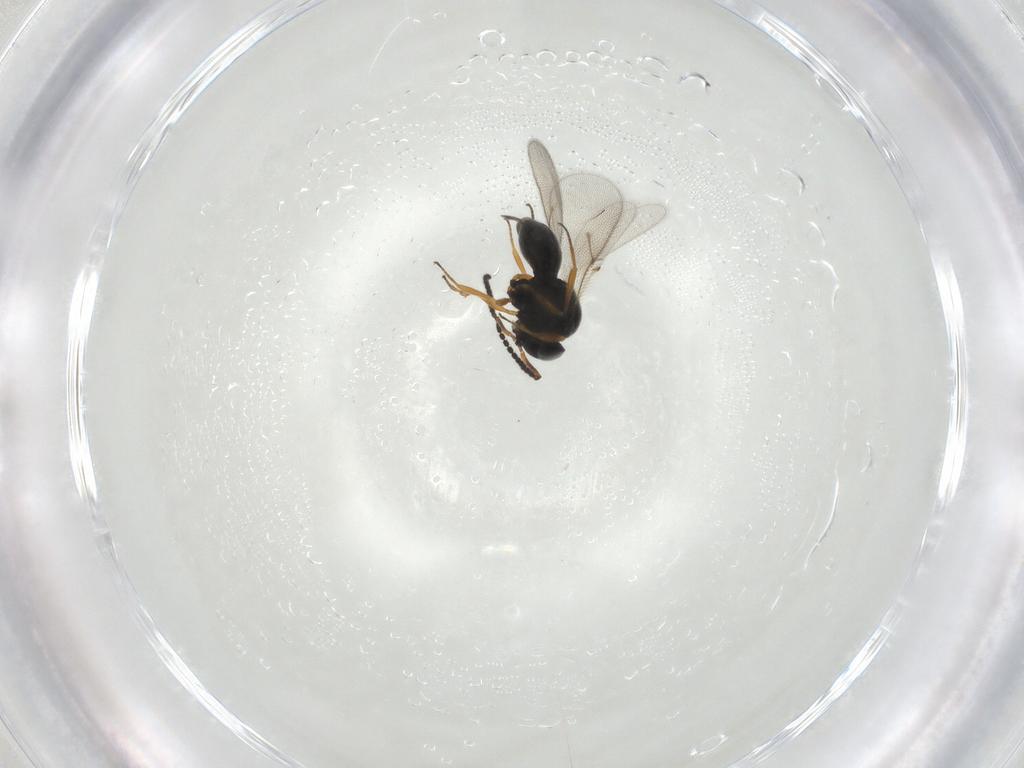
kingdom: Animalia
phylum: Arthropoda
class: Insecta
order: Hymenoptera
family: Scelionidae
